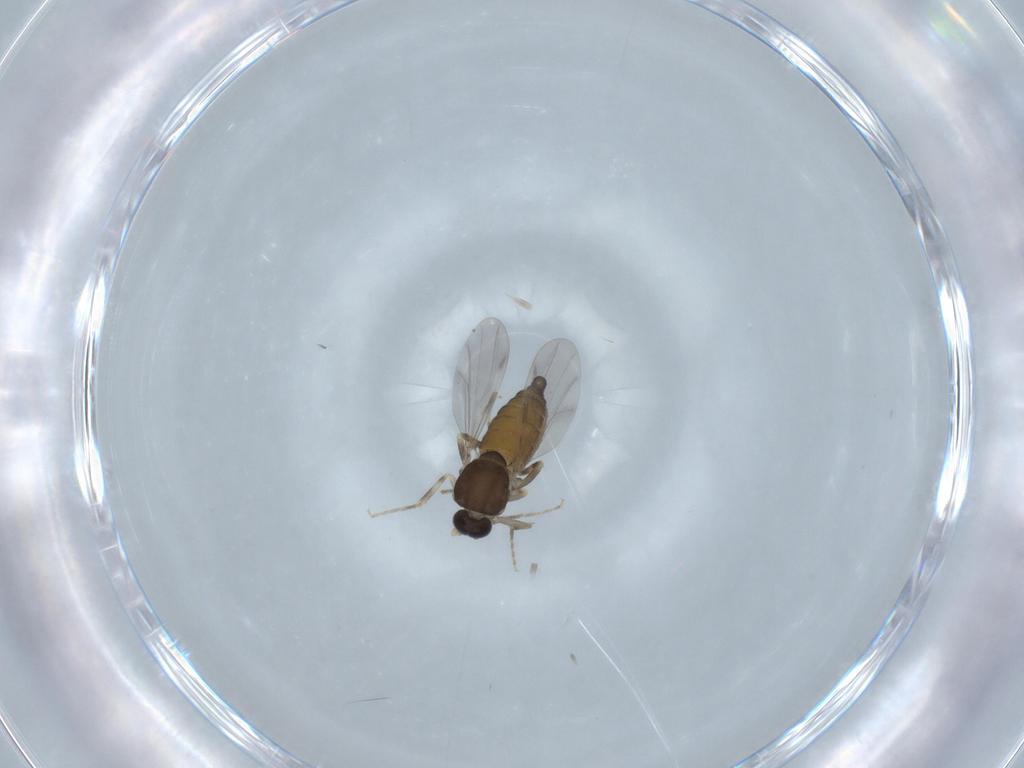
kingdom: Animalia
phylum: Arthropoda
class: Insecta
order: Diptera
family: Ceratopogonidae
